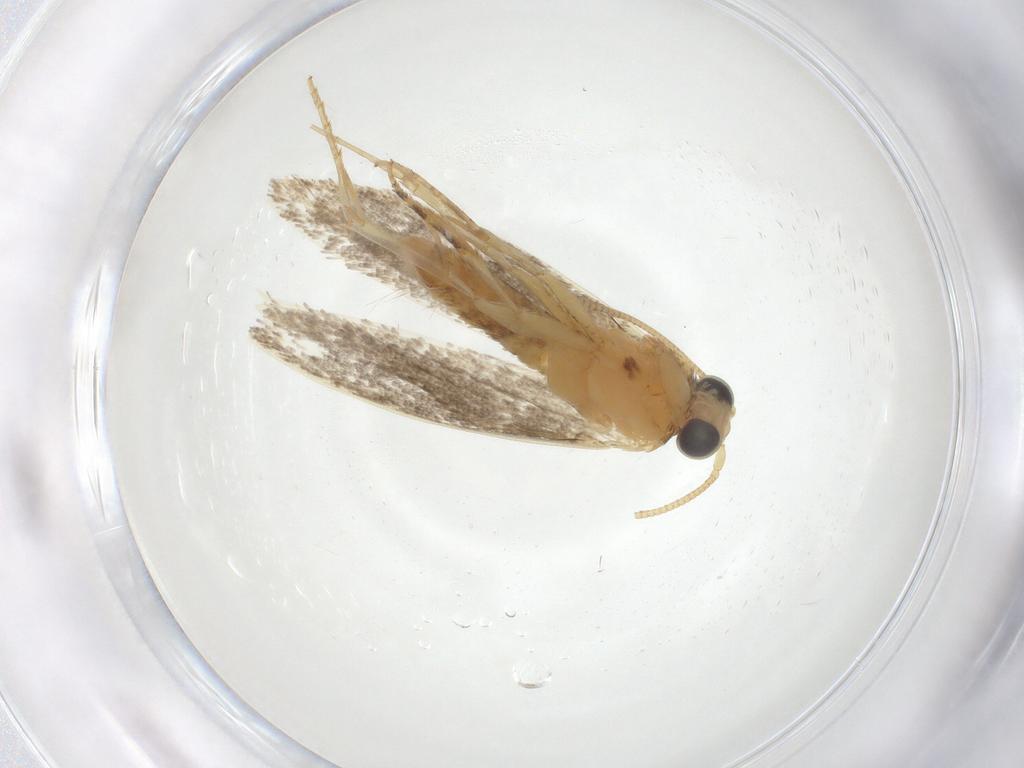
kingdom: Animalia
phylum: Arthropoda
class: Insecta
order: Lepidoptera
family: Tineidae
